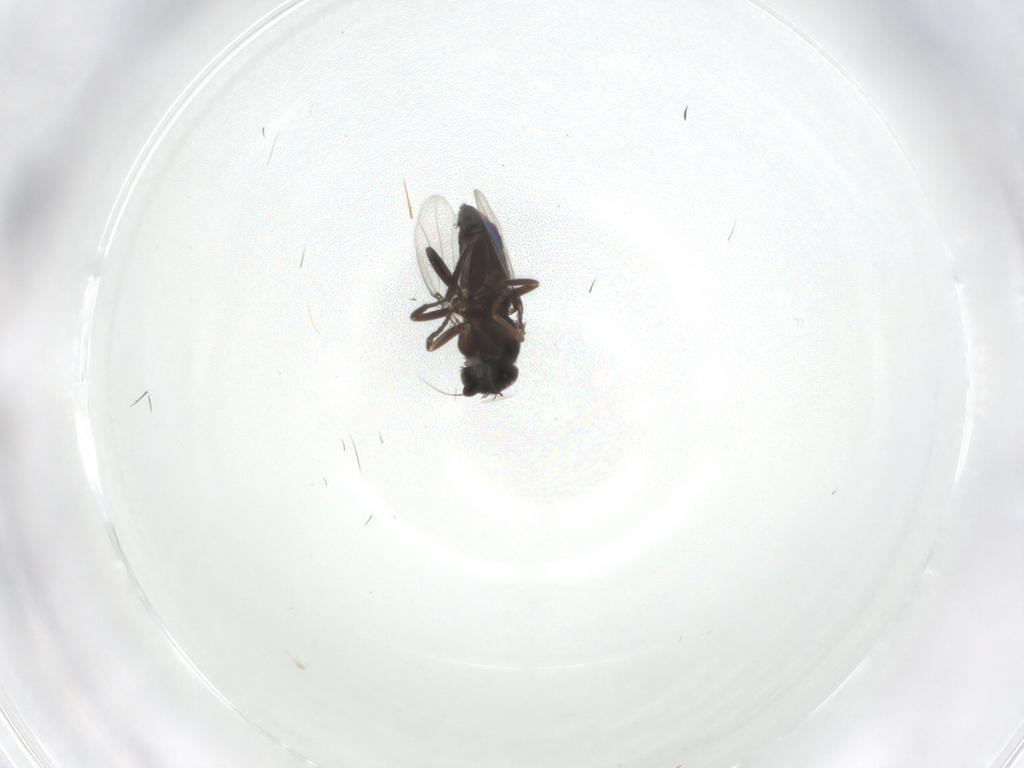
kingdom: Animalia
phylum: Arthropoda
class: Insecta
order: Diptera
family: Phoridae
